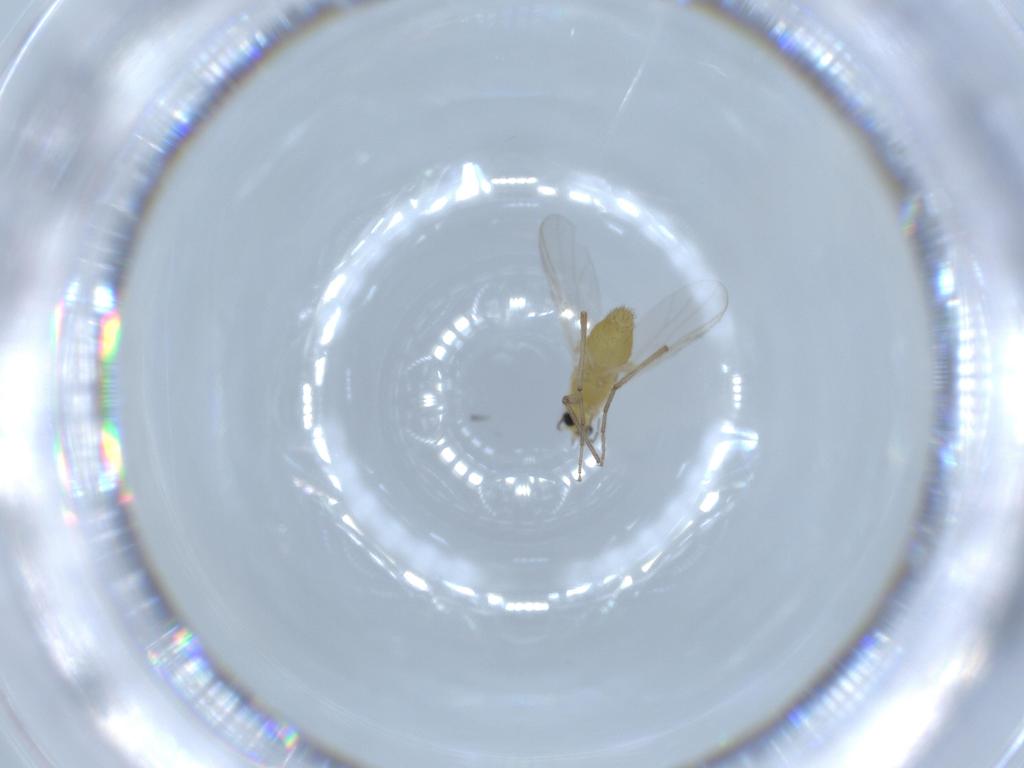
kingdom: Animalia
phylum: Arthropoda
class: Insecta
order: Diptera
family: Chironomidae
